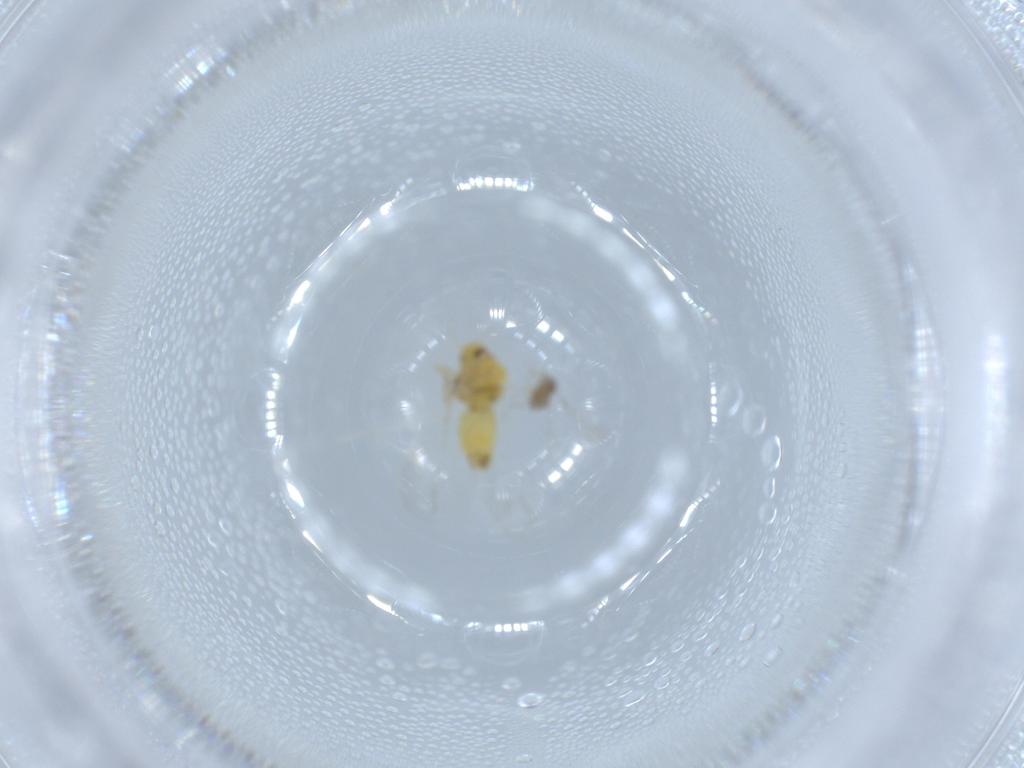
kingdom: Animalia
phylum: Arthropoda
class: Insecta
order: Hemiptera
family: Aleyrodidae
